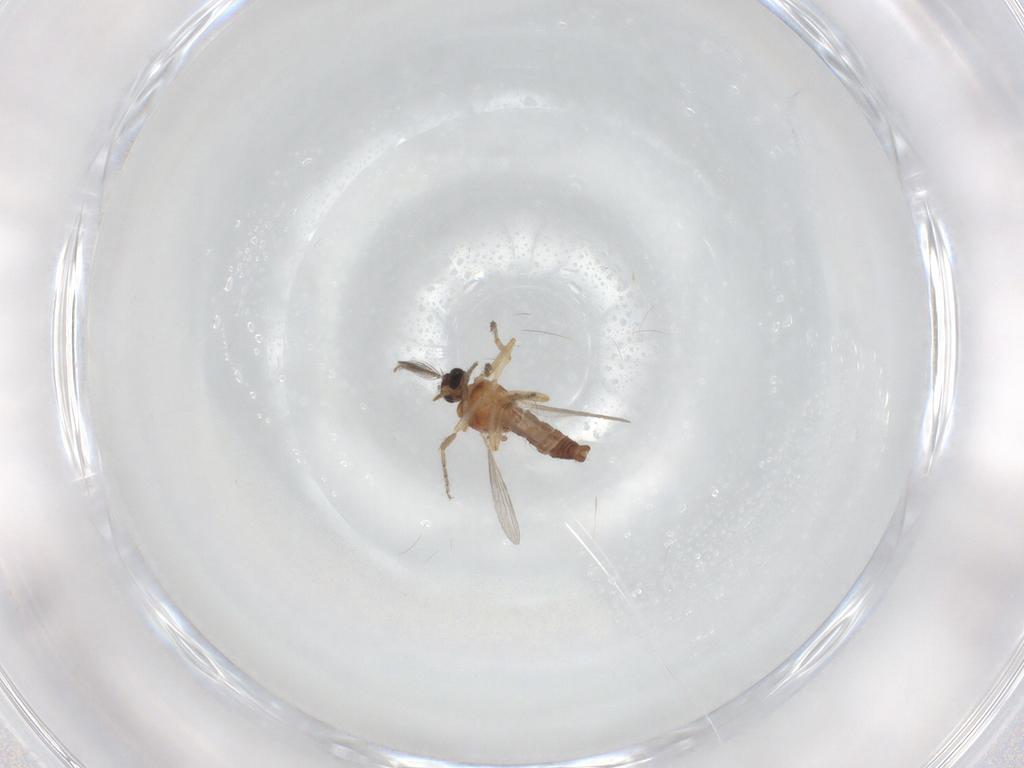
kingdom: Animalia
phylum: Arthropoda
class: Insecta
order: Diptera
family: Ceratopogonidae
